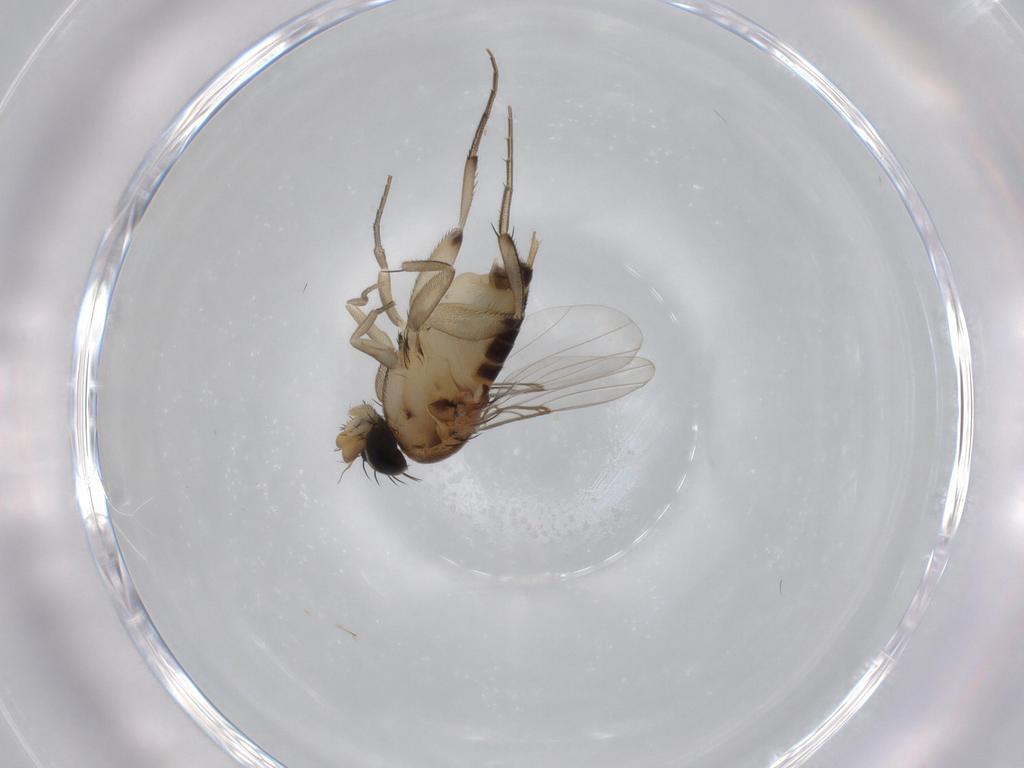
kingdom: Animalia
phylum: Arthropoda
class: Insecta
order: Diptera
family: Phoridae
